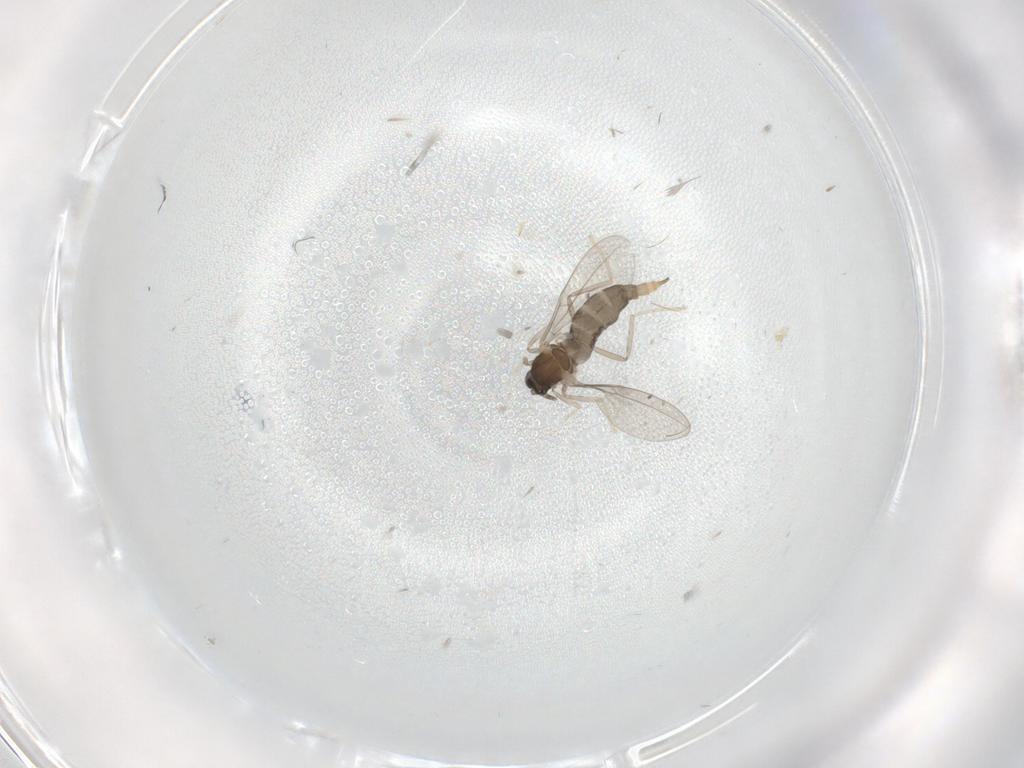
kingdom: Animalia
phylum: Arthropoda
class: Insecta
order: Diptera
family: Cecidomyiidae
